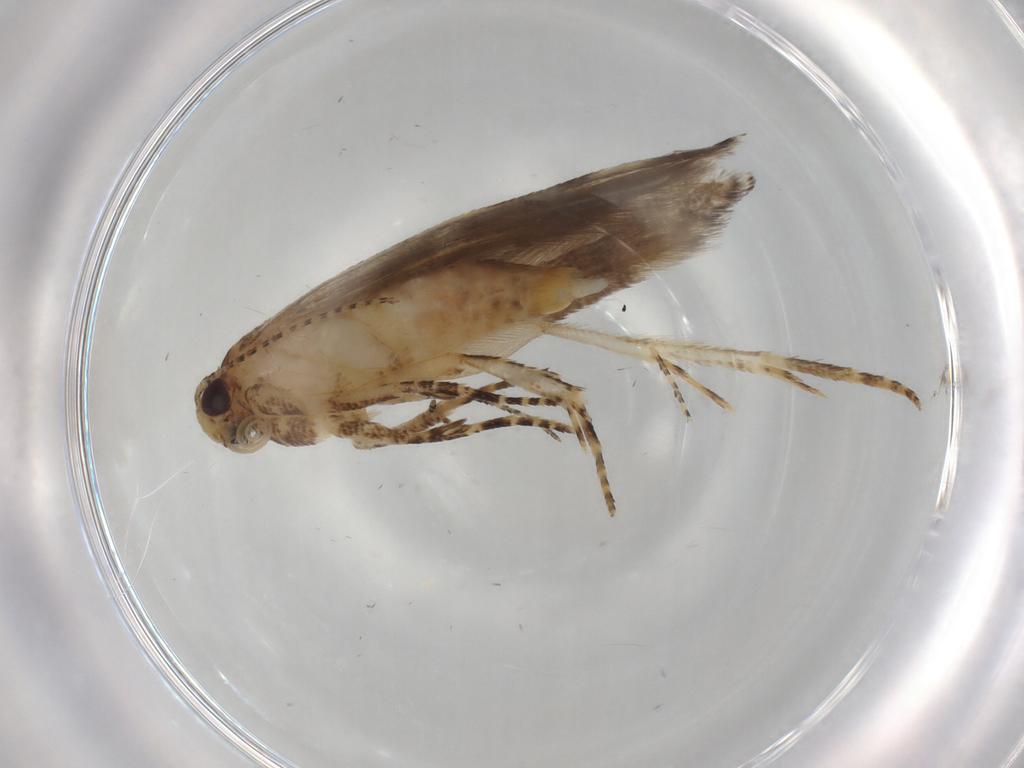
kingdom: Animalia
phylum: Arthropoda
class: Insecta
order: Lepidoptera
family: Gelechiidae
